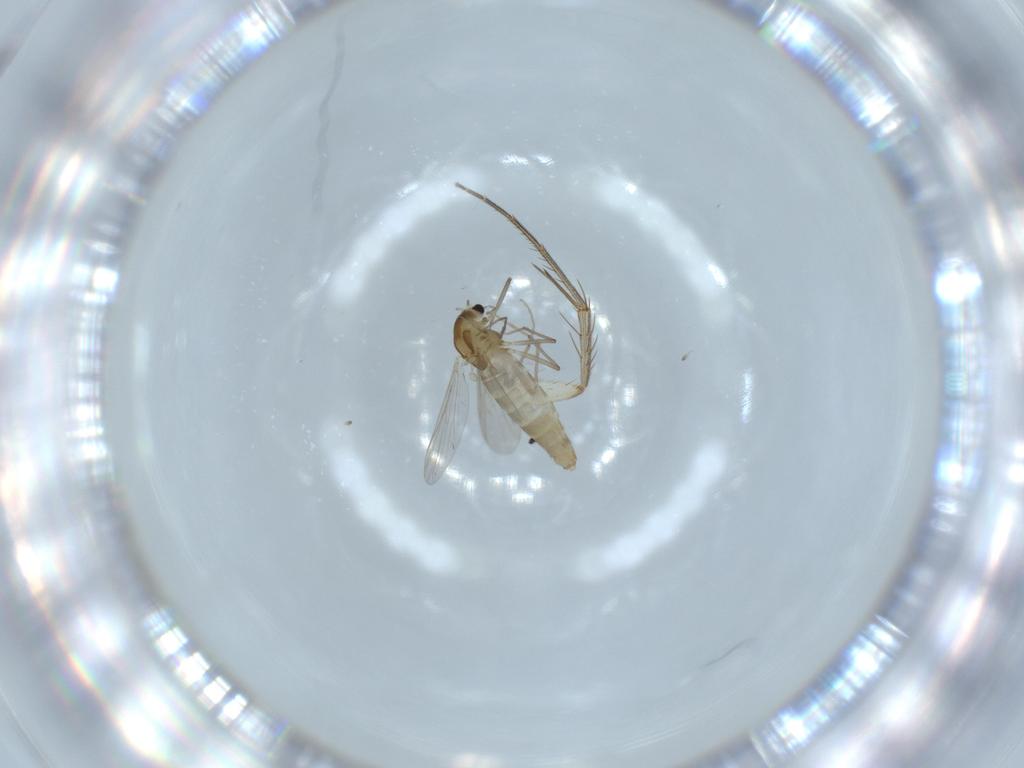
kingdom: Animalia
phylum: Arthropoda
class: Insecta
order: Diptera
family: Chironomidae
